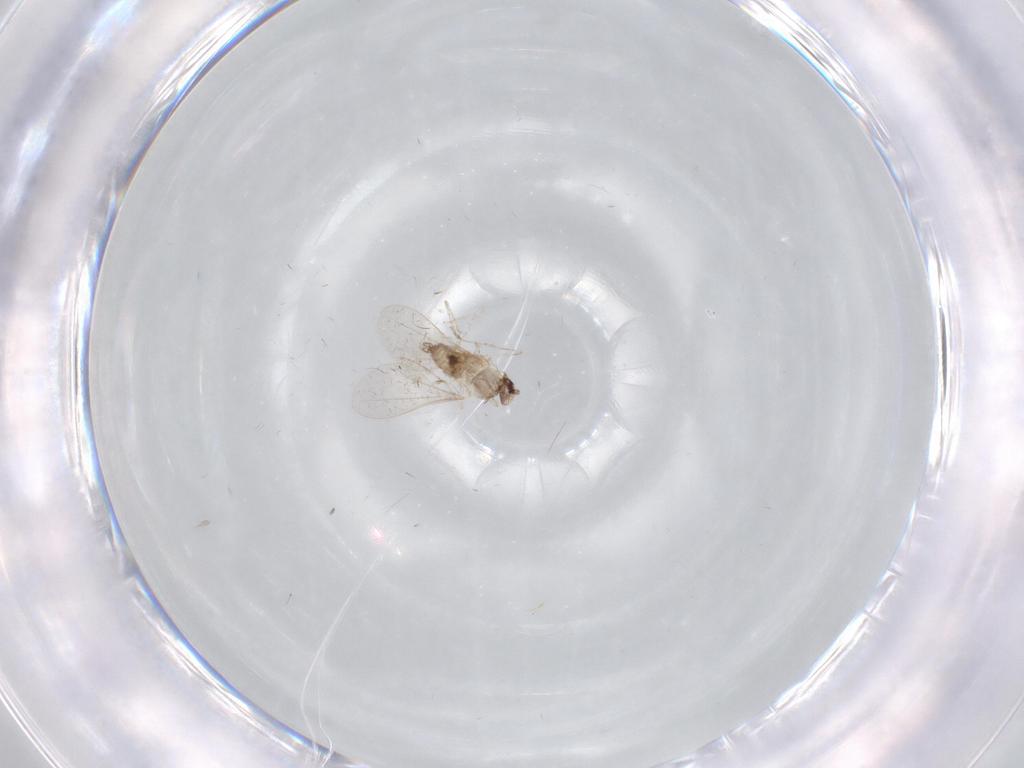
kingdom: Animalia
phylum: Arthropoda
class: Insecta
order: Diptera
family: Cecidomyiidae
